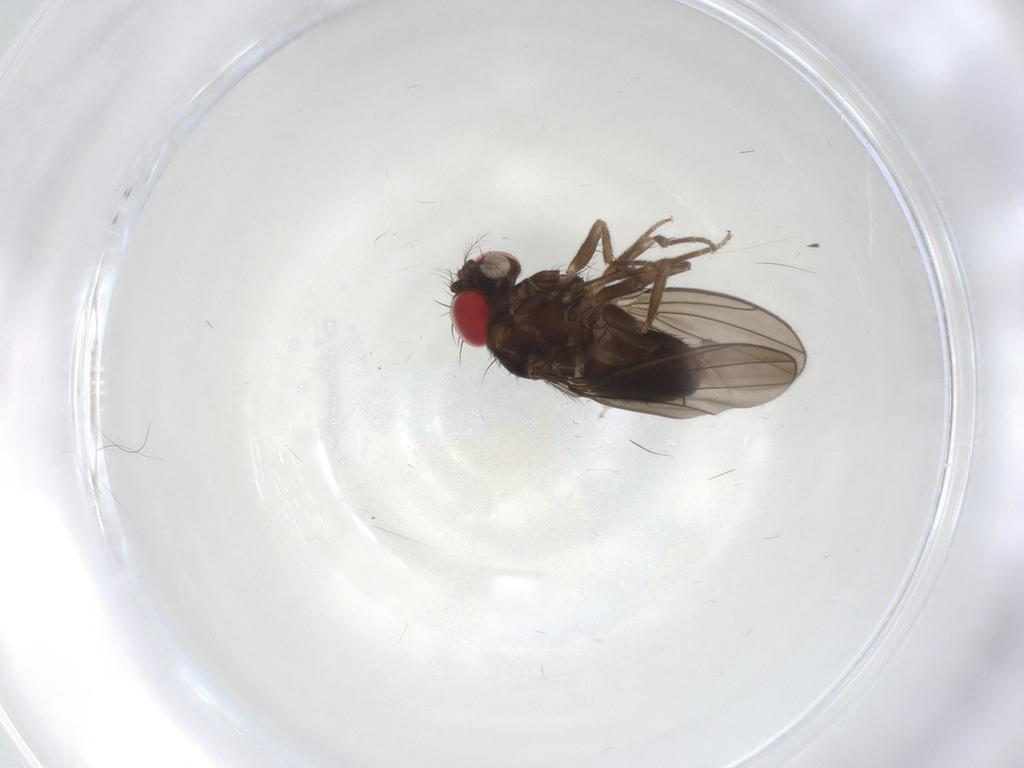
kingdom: Animalia
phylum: Arthropoda
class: Insecta
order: Diptera
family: Drosophilidae
